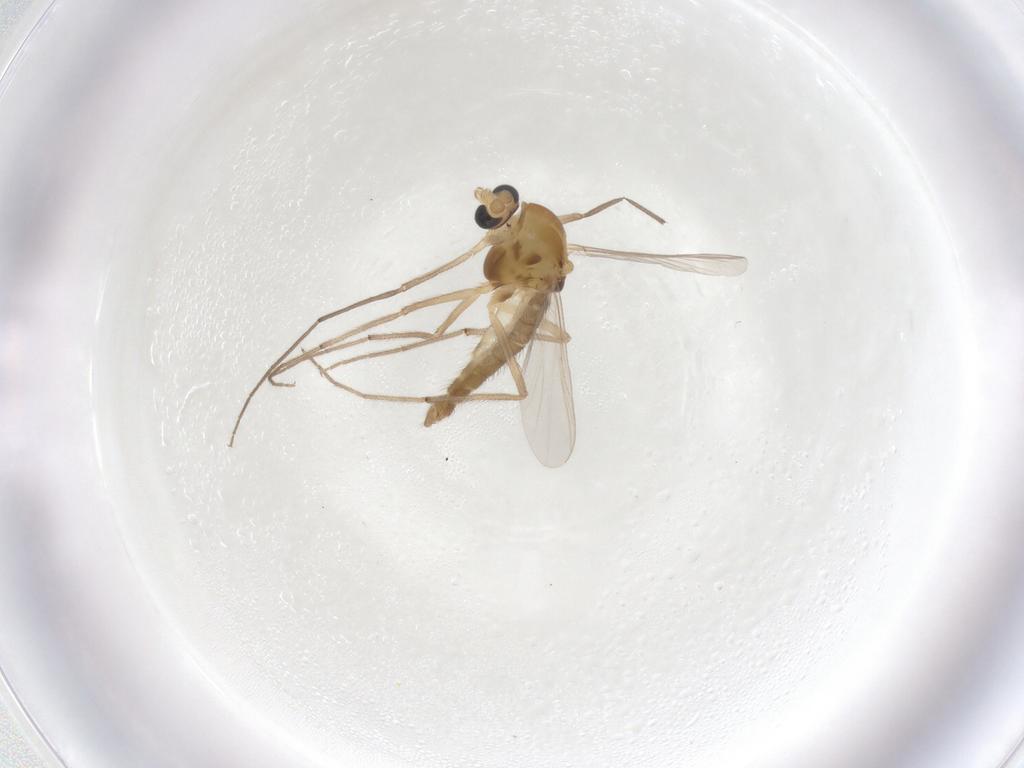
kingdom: Animalia
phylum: Arthropoda
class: Insecta
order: Diptera
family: Chironomidae
